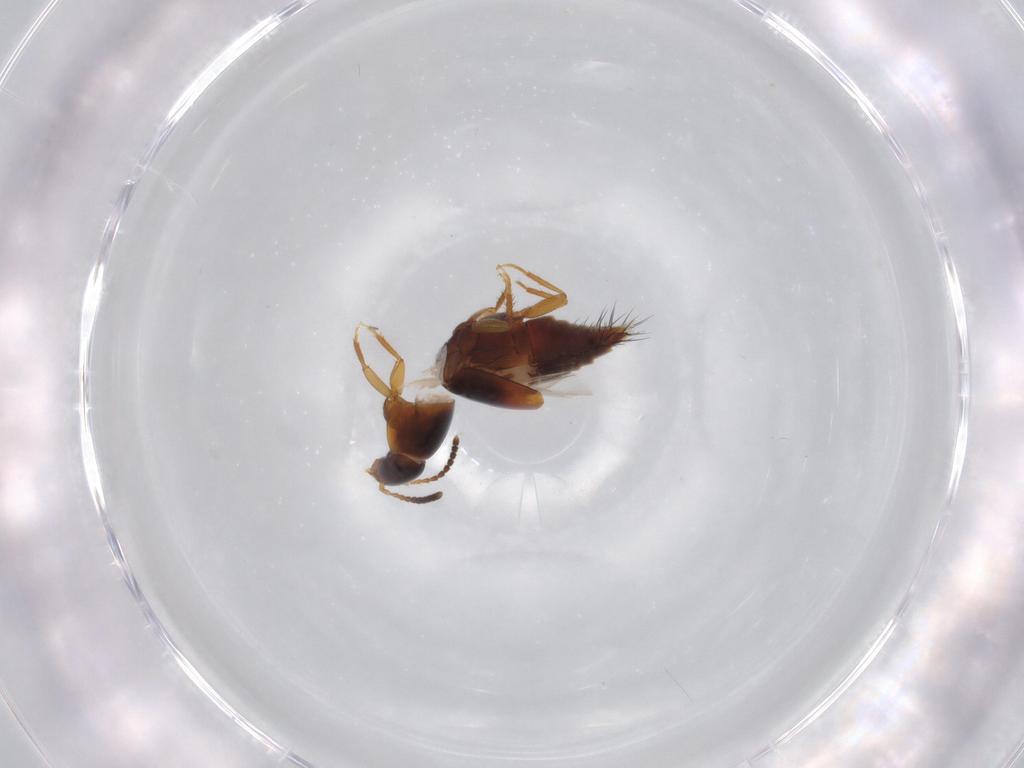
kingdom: Animalia
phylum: Arthropoda
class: Insecta
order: Coleoptera
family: Staphylinidae
